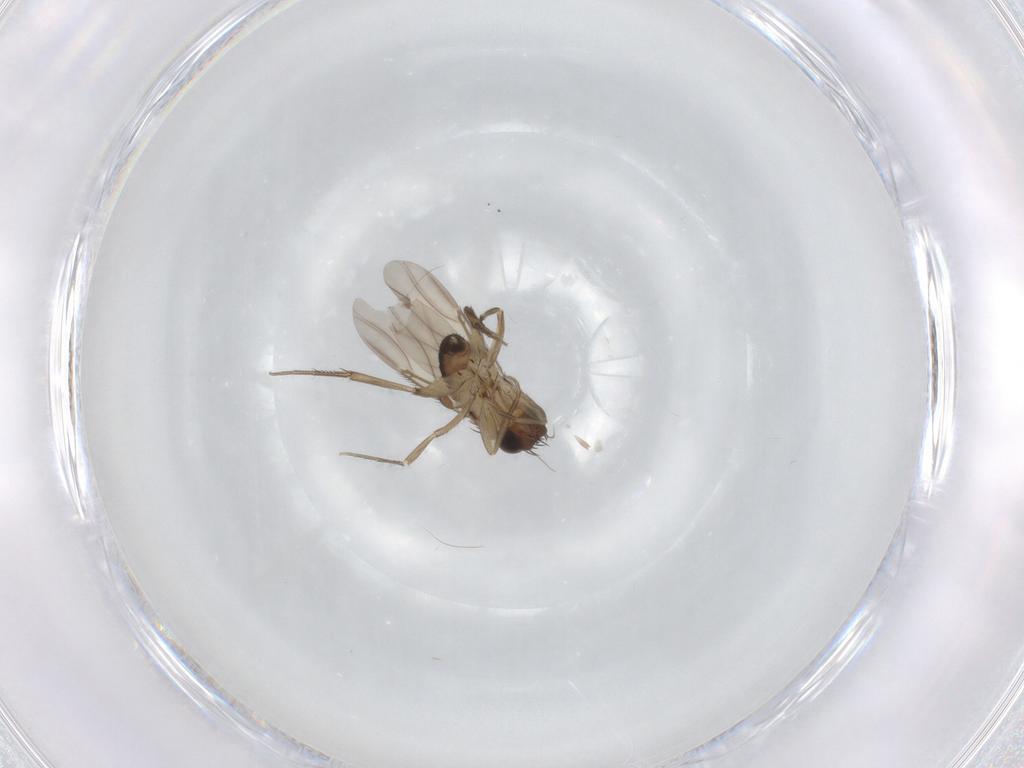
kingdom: Animalia
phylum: Arthropoda
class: Insecta
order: Diptera
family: Phoridae
